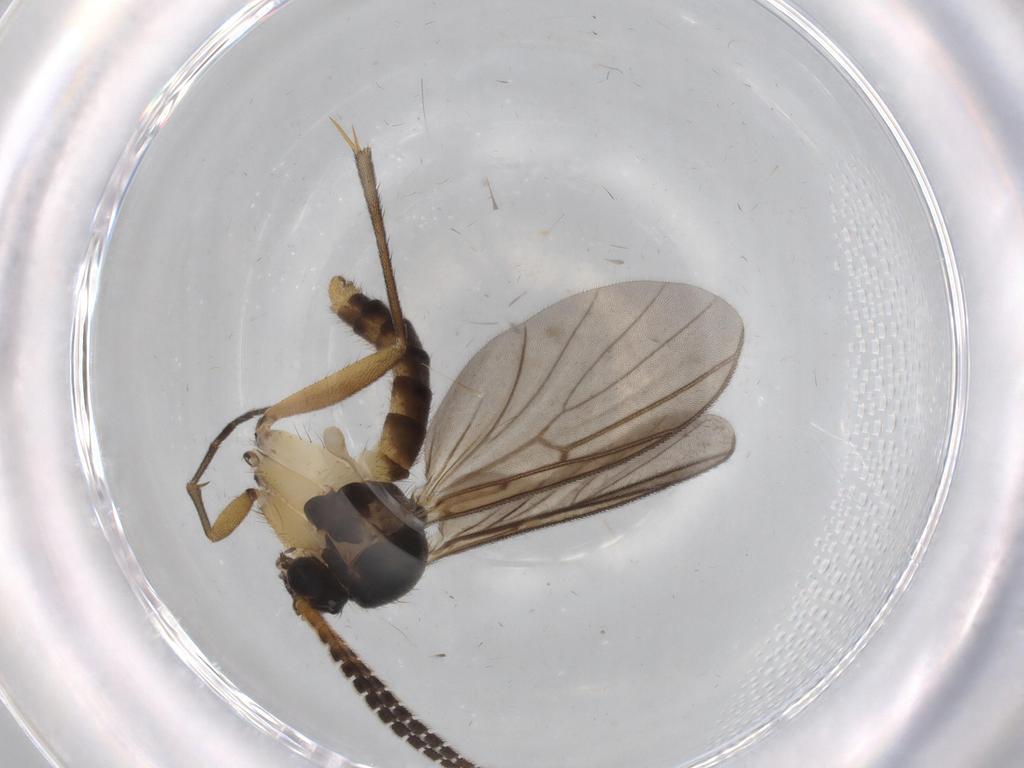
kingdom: Animalia
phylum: Arthropoda
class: Insecta
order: Diptera
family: Mycetophilidae
